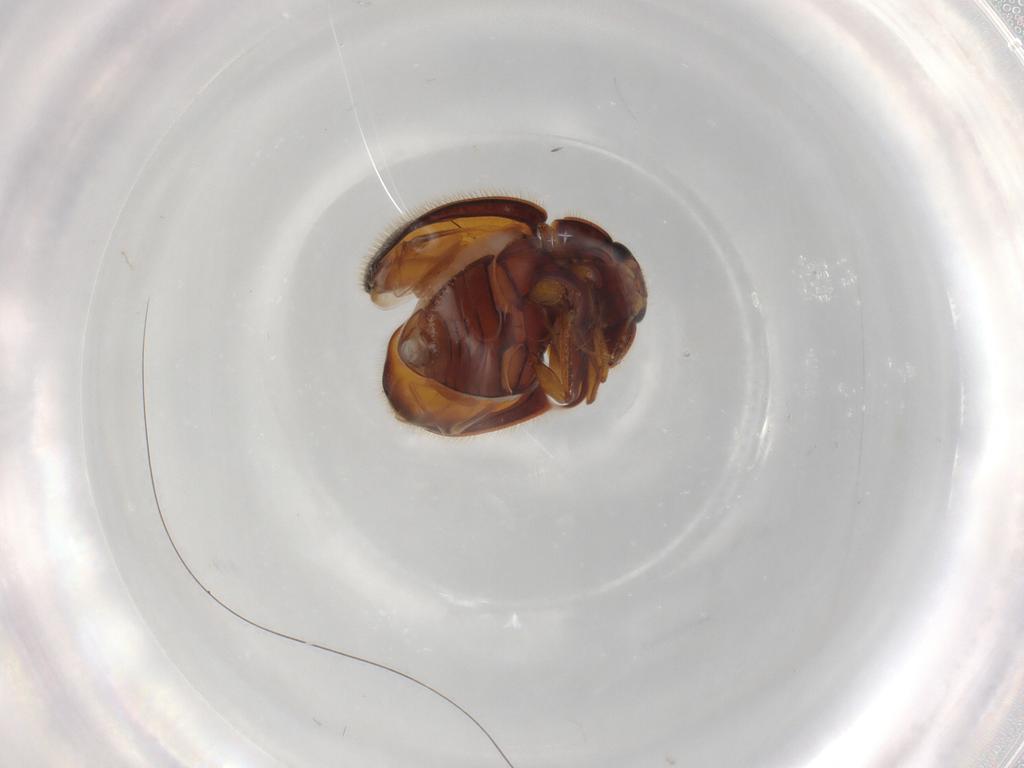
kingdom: Animalia
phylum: Arthropoda
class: Insecta
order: Coleoptera
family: Anamorphidae
